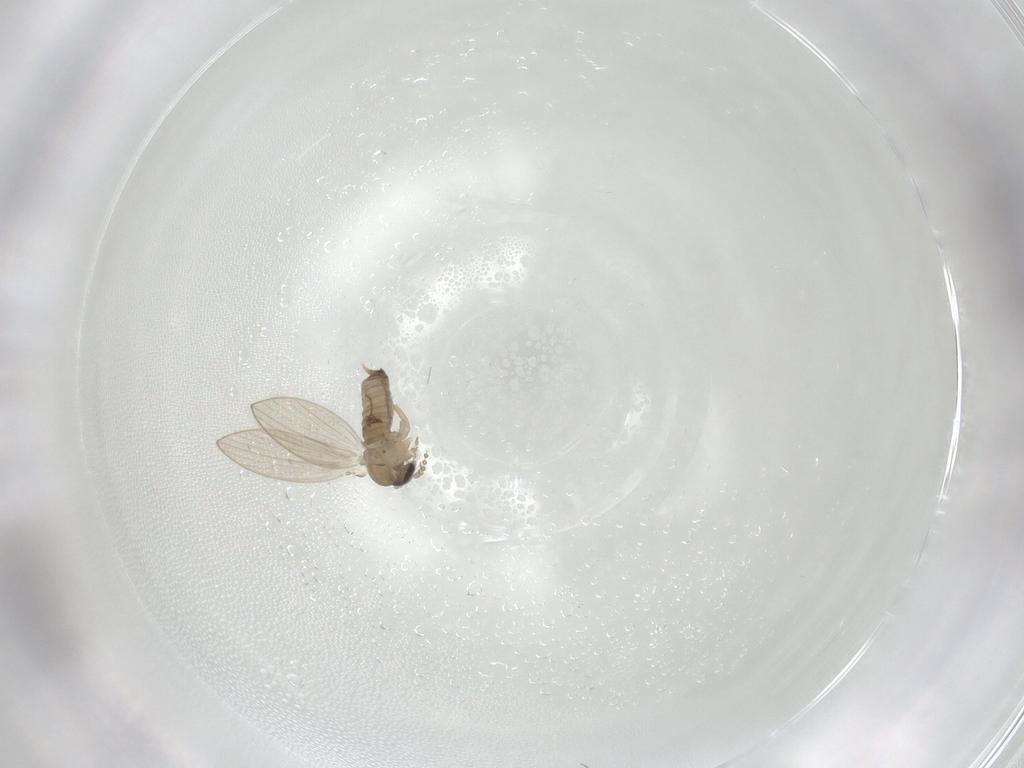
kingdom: Animalia
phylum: Arthropoda
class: Insecta
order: Diptera
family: Psychodidae
